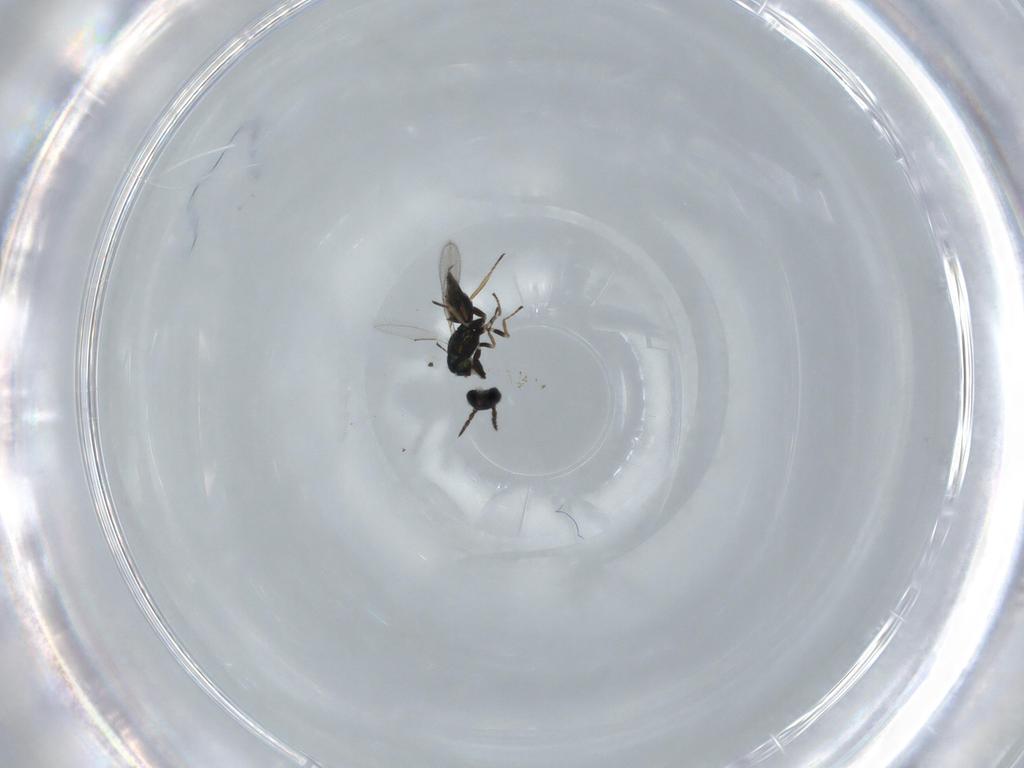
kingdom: Animalia
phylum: Arthropoda
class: Insecta
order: Diptera
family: Ephydridae
